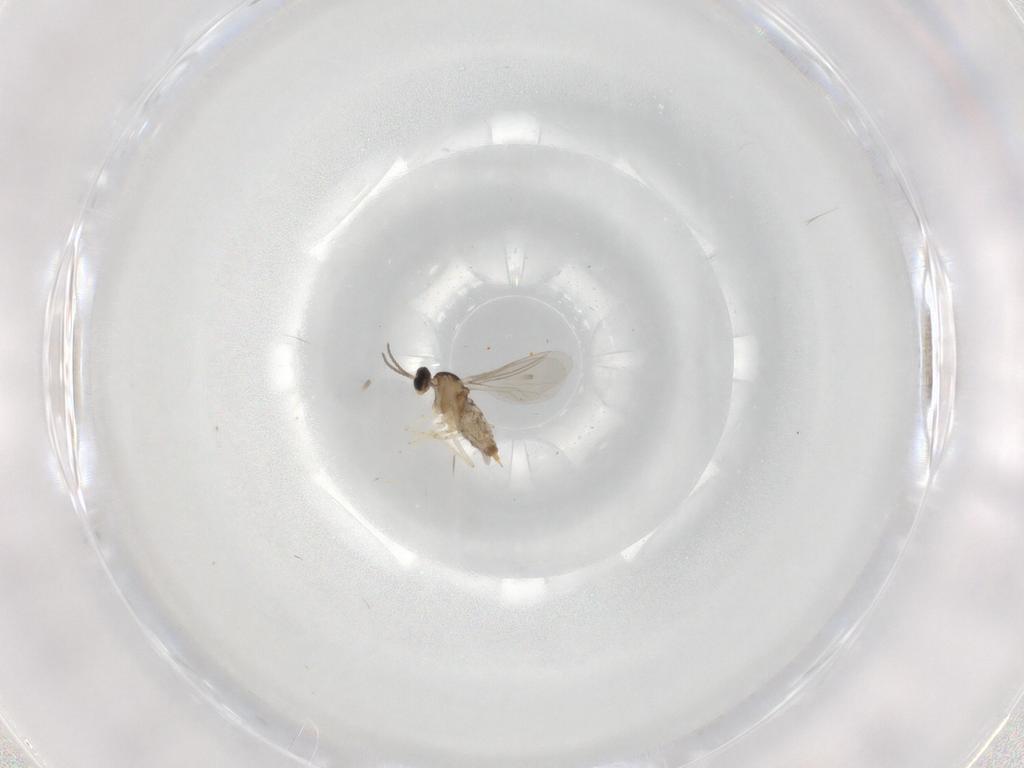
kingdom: Animalia
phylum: Arthropoda
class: Insecta
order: Diptera
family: Cecidomyiidae
